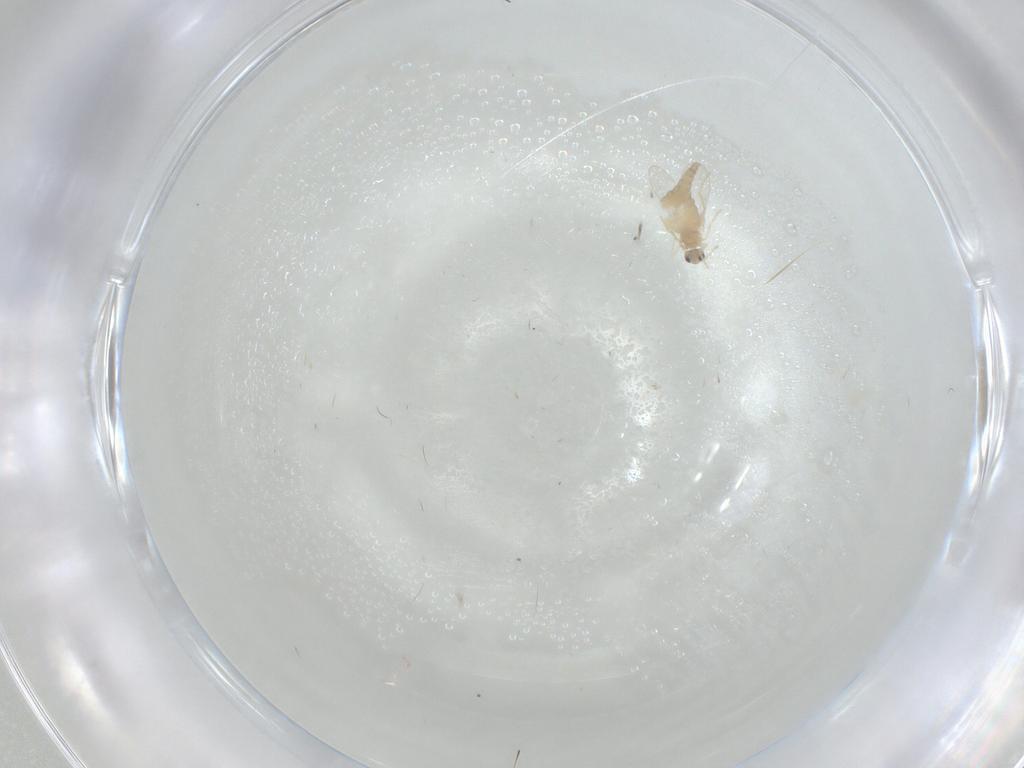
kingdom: Animalia
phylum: Arthropoda
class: Insecta
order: Diptera
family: Cecidomyiidae
